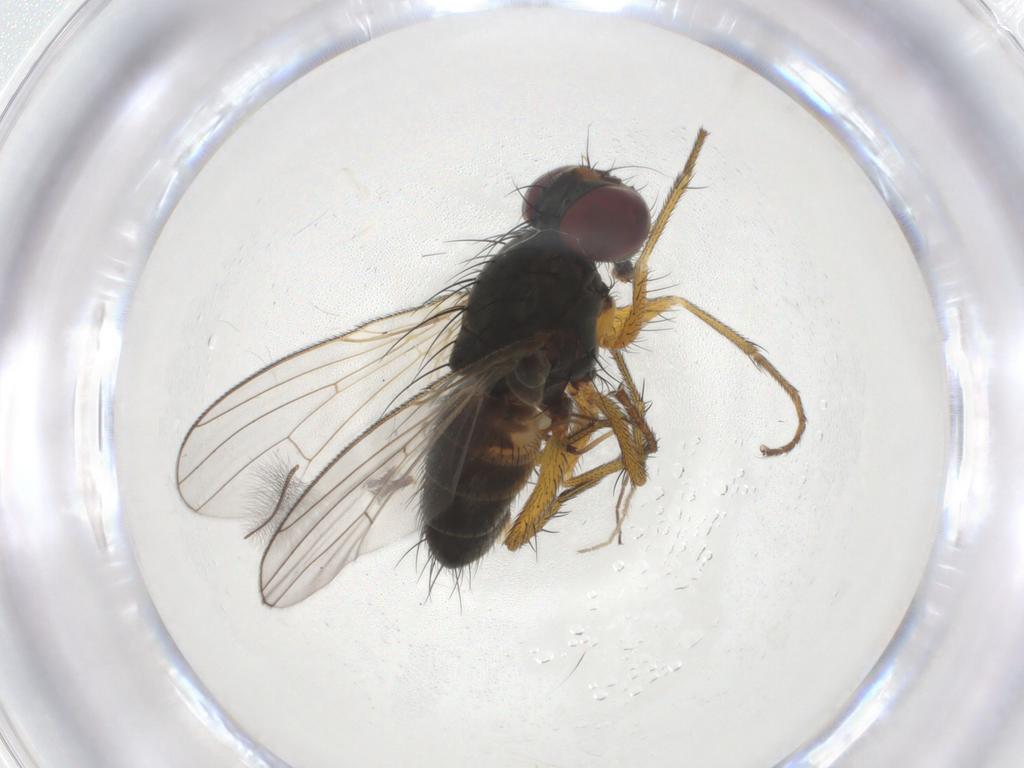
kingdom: Animalia
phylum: Arthropoda
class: Insecta
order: Diptera
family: Muscidae
